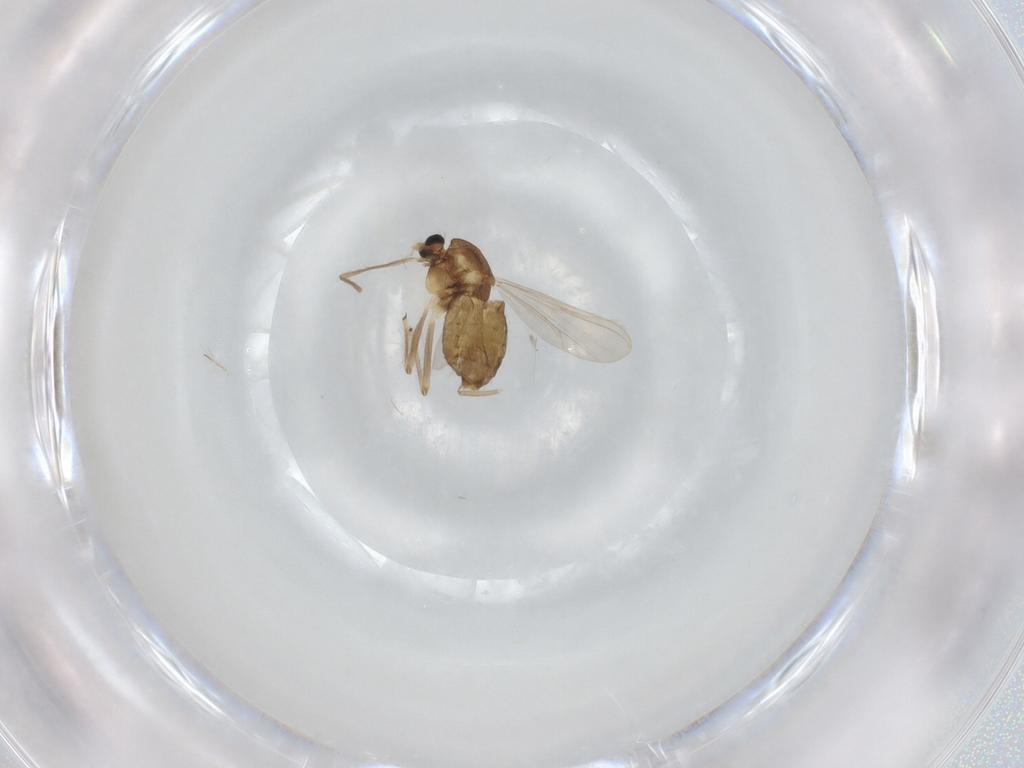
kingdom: Animalia
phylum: Arthropoda
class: Insecta
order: Diptera
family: Chironomidae
